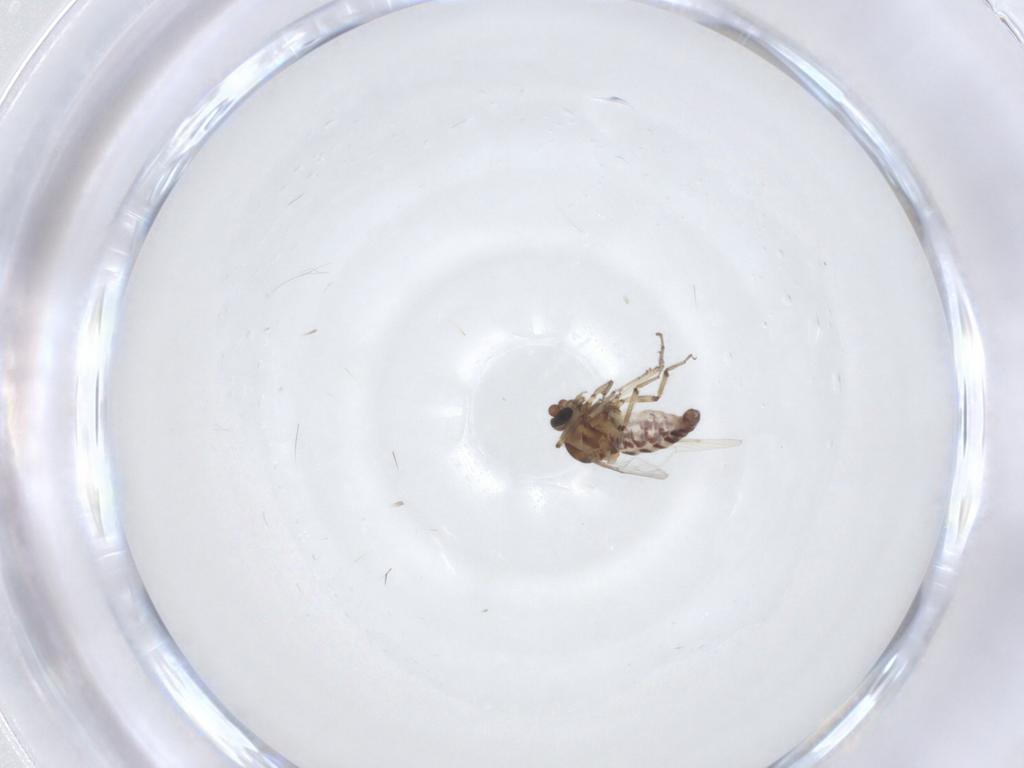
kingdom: Animalia
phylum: Arthropoda
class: Insecta
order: Diptera
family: Ceratopogonidae
